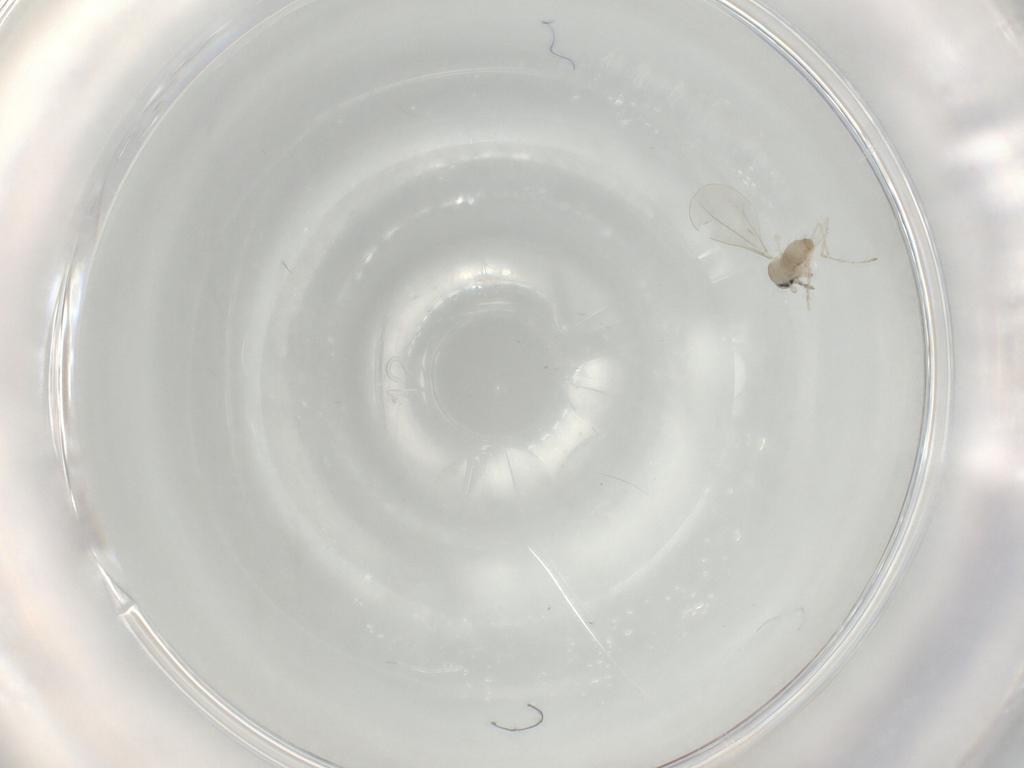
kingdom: Animalia
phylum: Arthropoda
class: Insecta
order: Diptera
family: Cecidomyiidae
